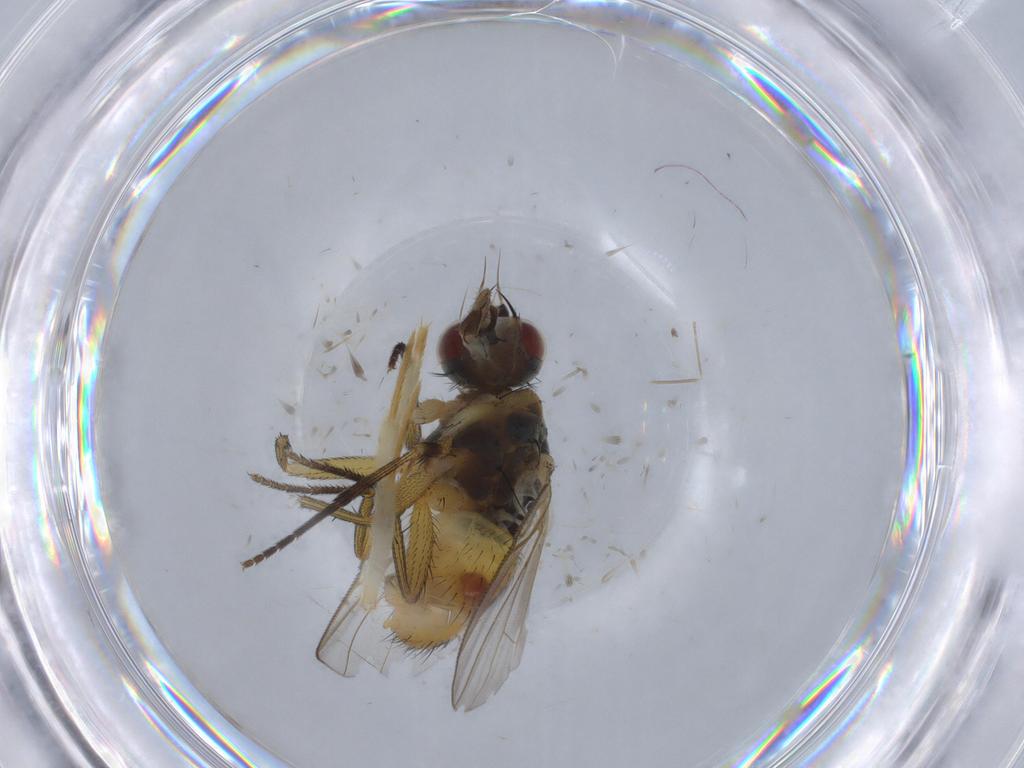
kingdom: Animalia
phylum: Arthropoda
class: Insecta
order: Diptera
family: Muscidae
